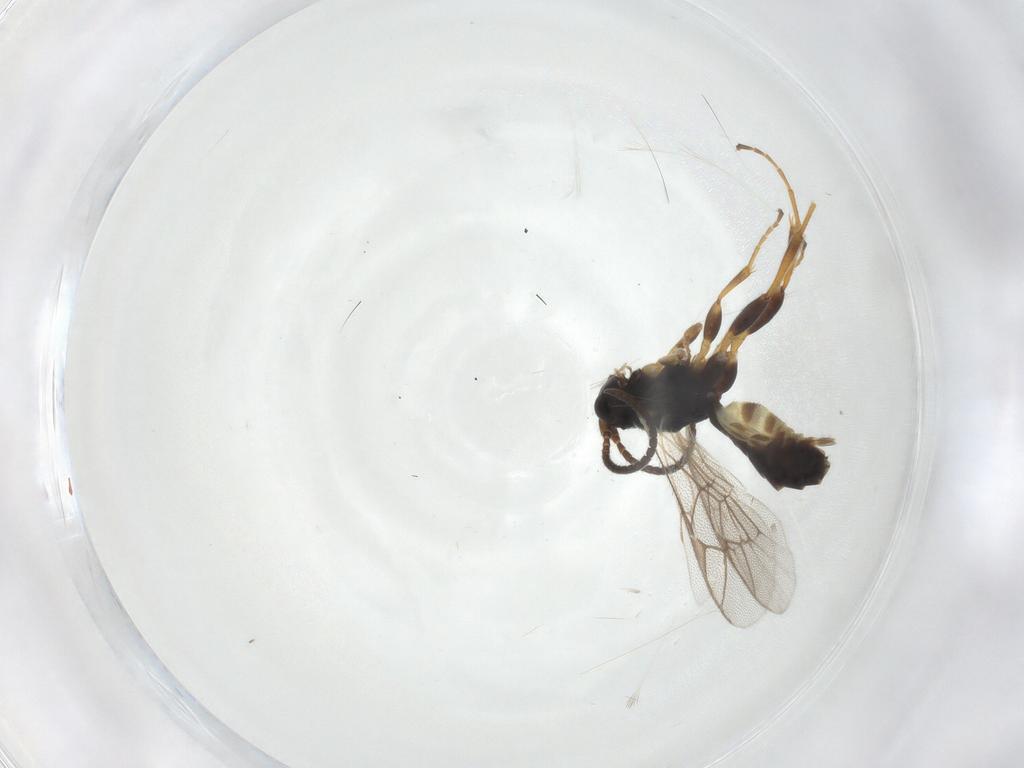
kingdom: Animalia
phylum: Arthropoda
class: Insecta
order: Hymenoptera
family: Ichneumonidae
